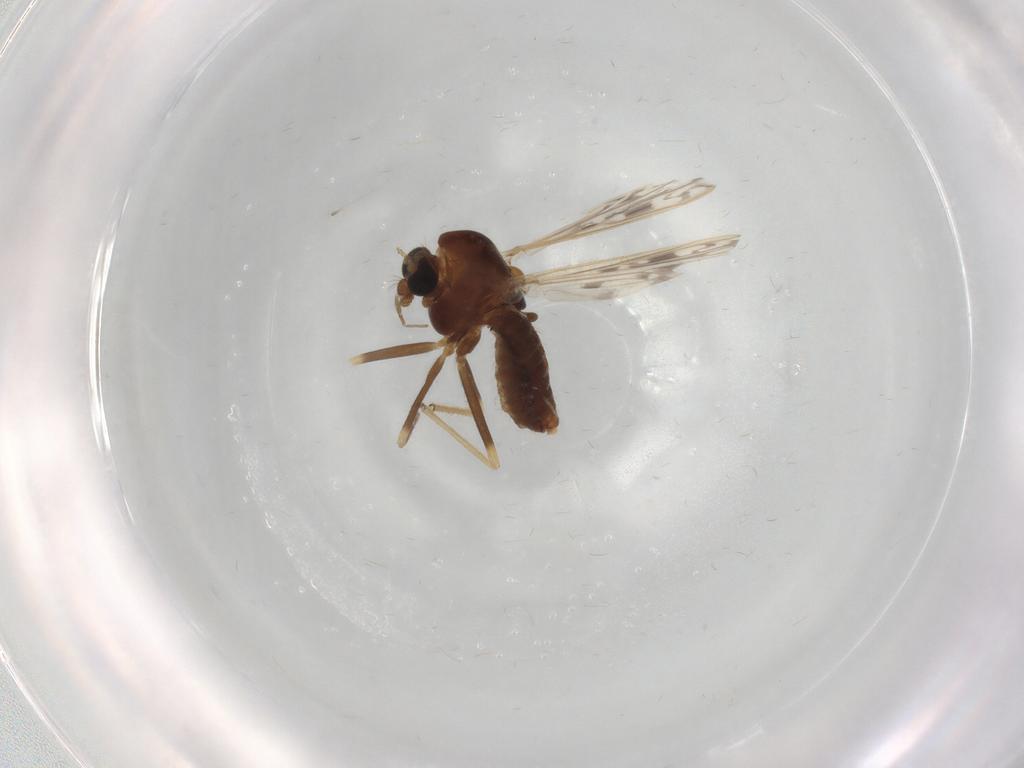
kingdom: Animalia
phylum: Arthropoda
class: Insecta
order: Diptera
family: Chironomidae
